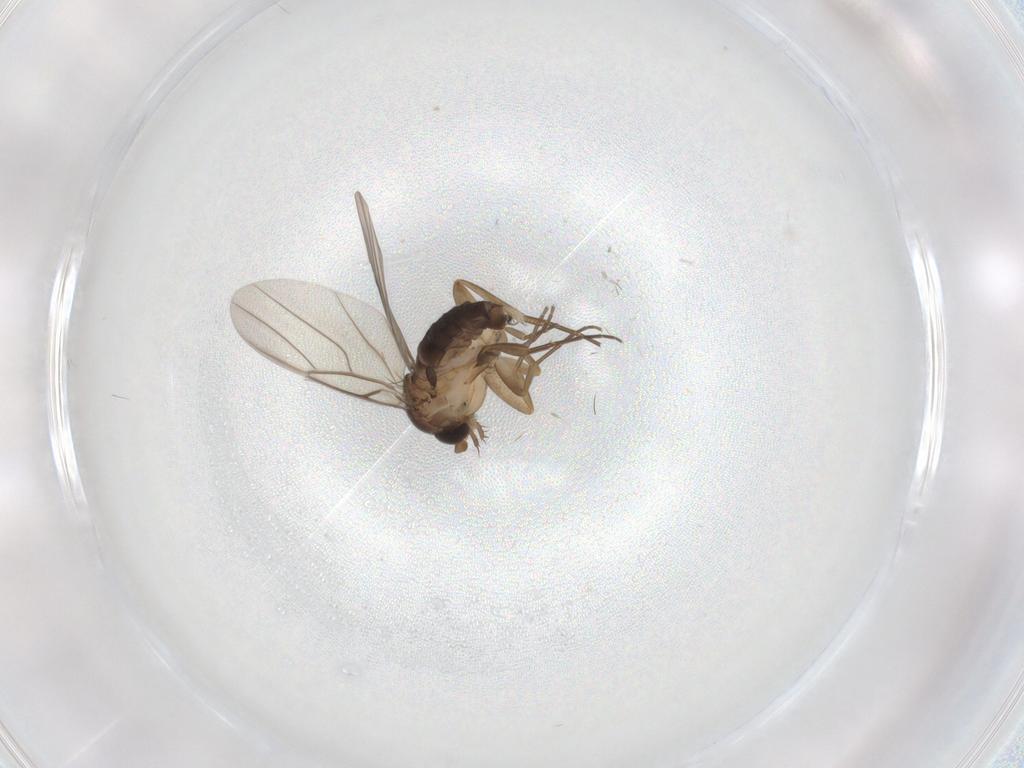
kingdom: Animalia
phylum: Arthropoda
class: Insecta
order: Diptera
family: Phoridae
